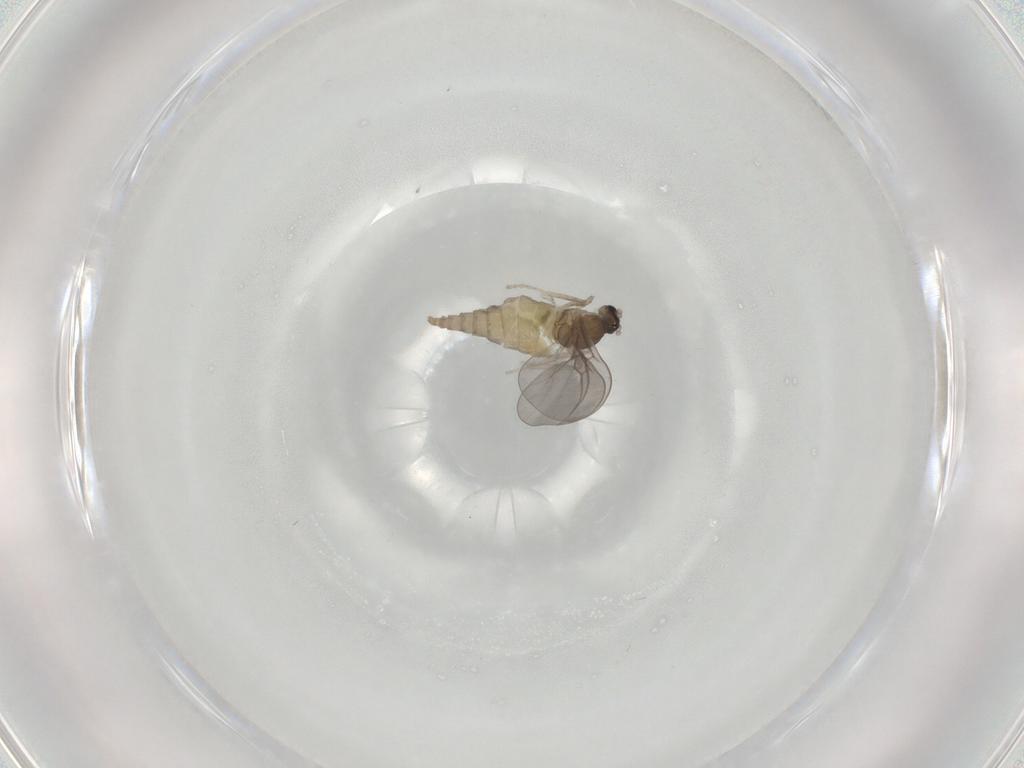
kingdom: Animalia
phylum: Arthropoda
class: Insecta
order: Diptera
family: Cecidomyiidae
